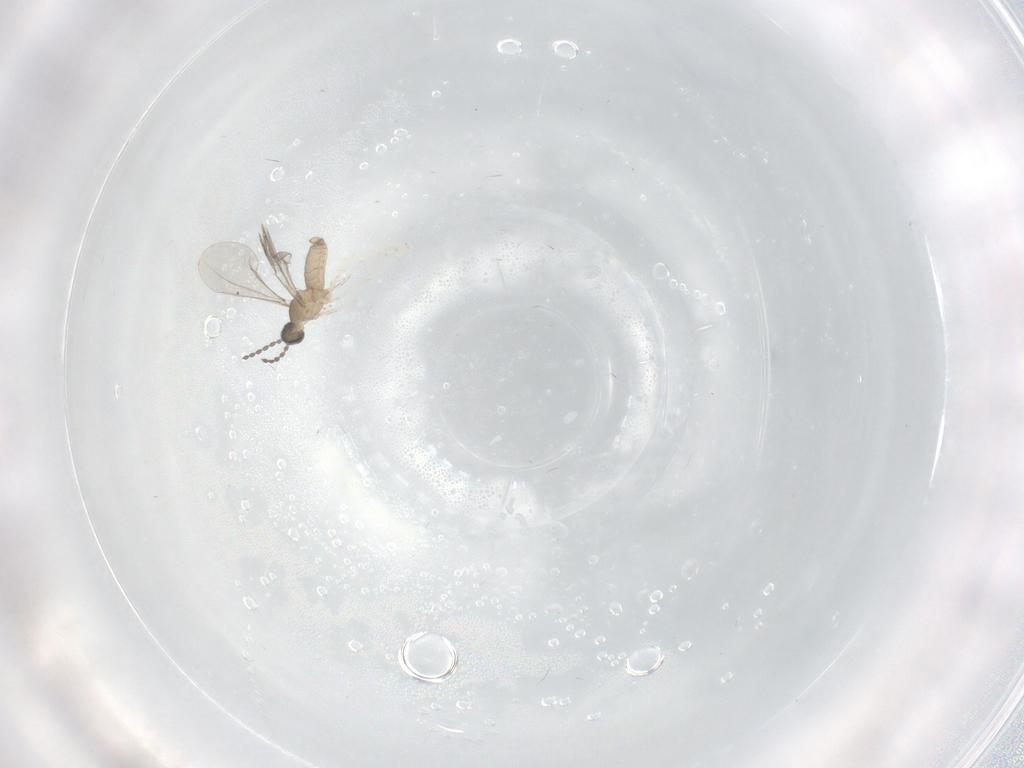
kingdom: Animalia
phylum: Arthropoda
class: Insecta
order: Diptera
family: Cecidomyiidae
